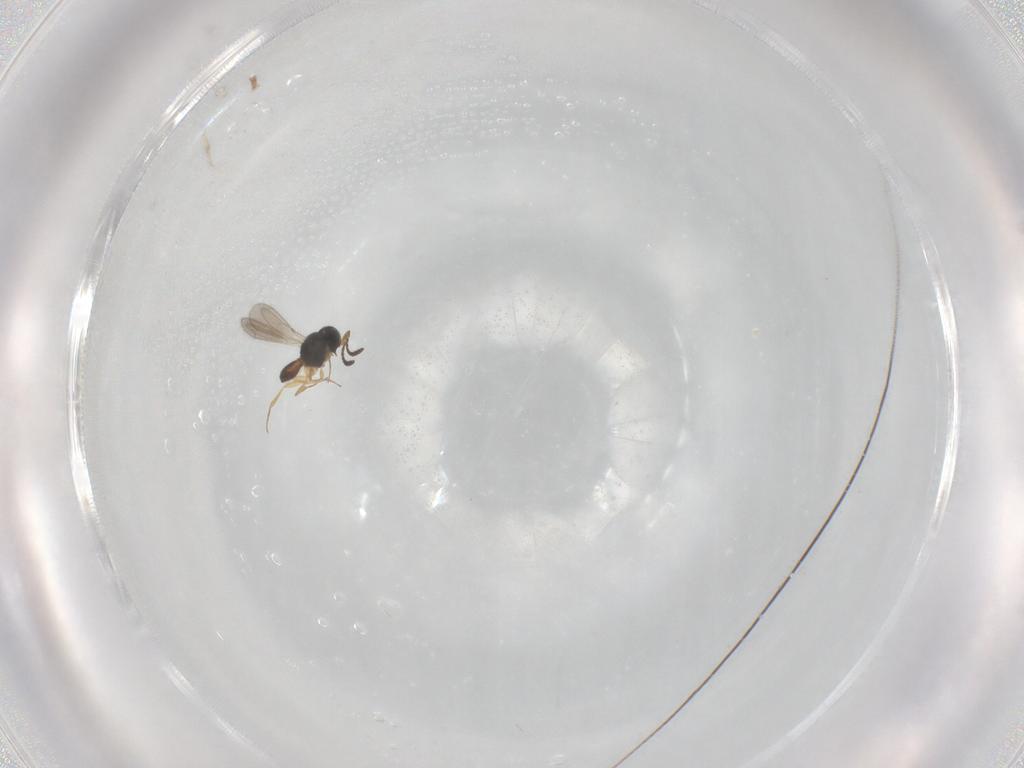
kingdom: Animalia
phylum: Arthropoda
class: Insecta
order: Hymenoptera
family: Scelionidae
